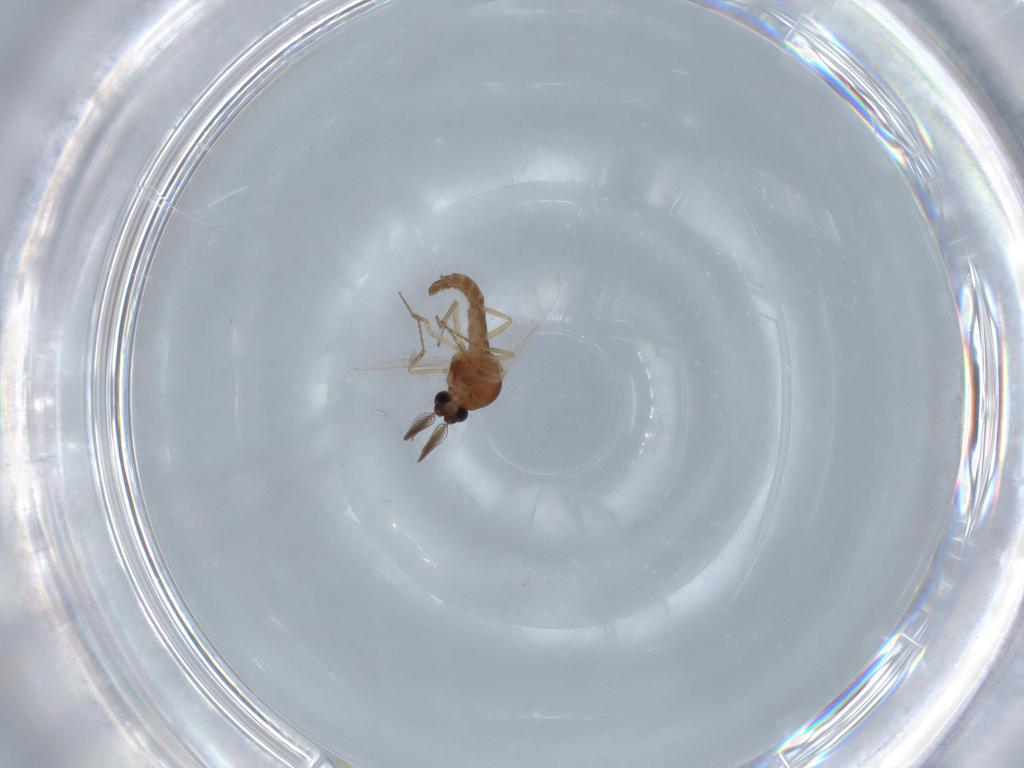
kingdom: Animalia
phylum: Arthropoda
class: Insecta
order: Diptera
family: Ceratopogonidae
